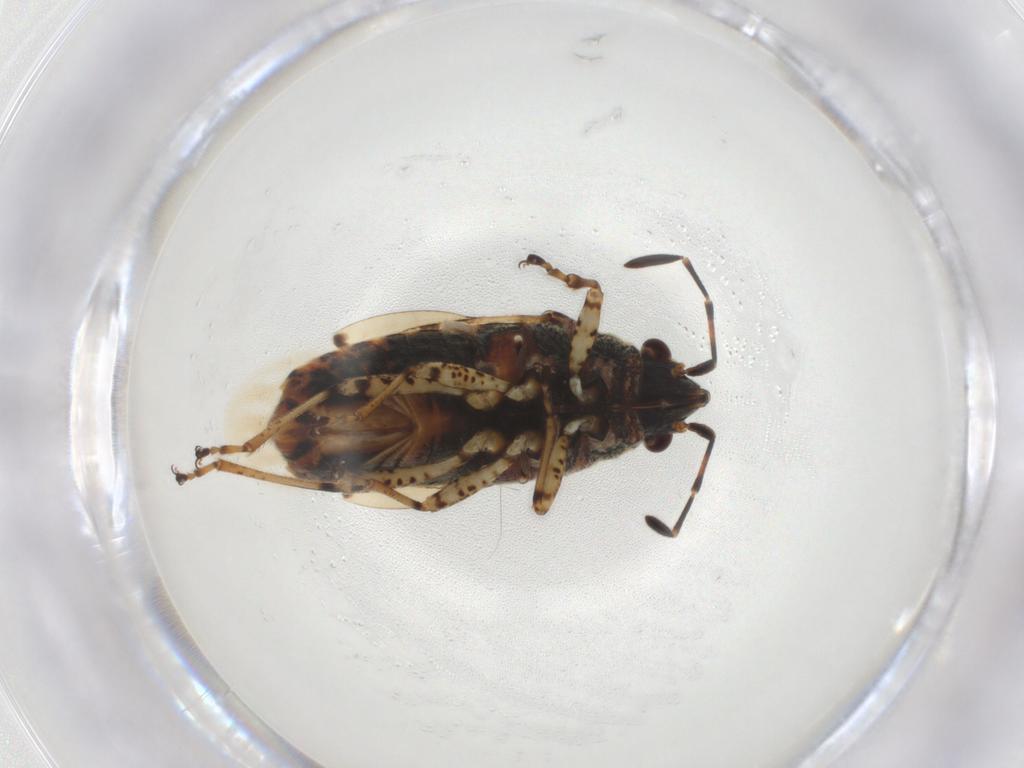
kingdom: Animalia
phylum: Arthropoda
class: Insecta
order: Hemiptera
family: Lygaeidae
